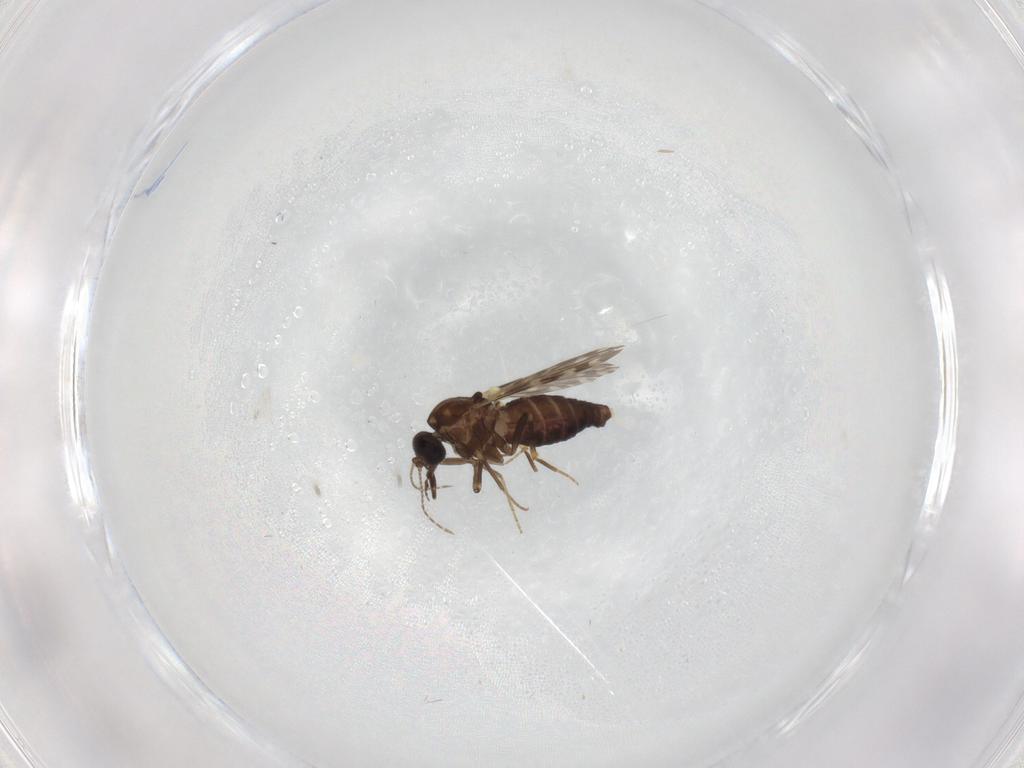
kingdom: Animalia
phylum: Arthropoda
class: Insecta
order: Diptera
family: Ceratopogonidae
